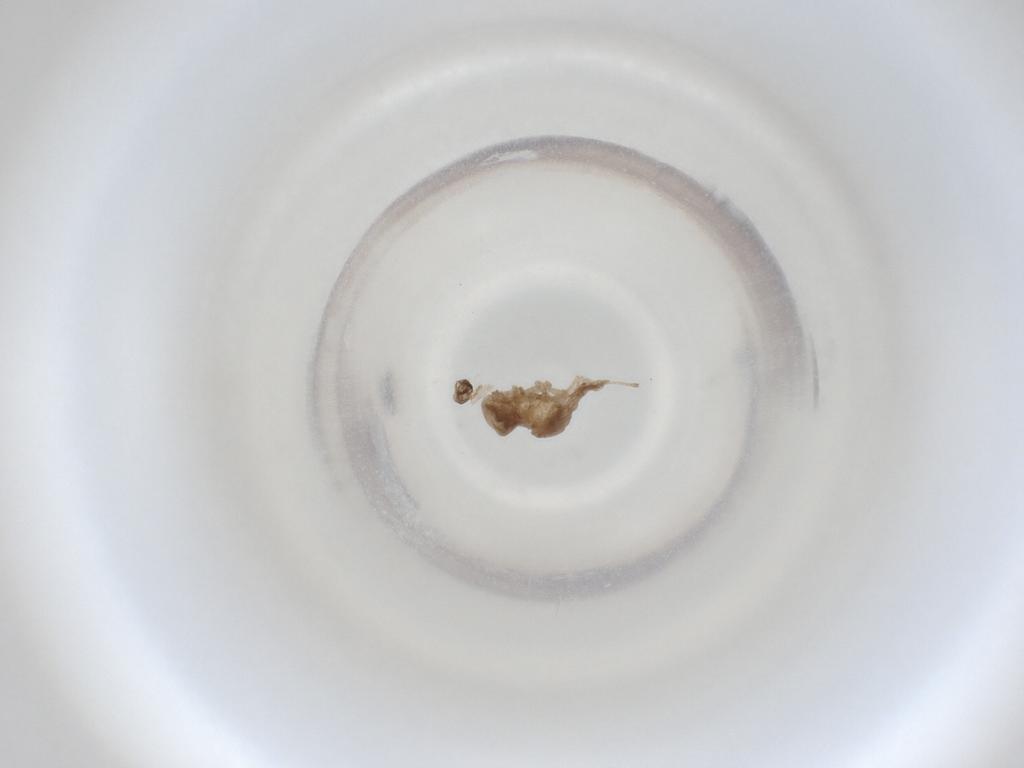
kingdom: Animalia
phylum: Arthropoda
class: Insecta
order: Diptera
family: Cecidomyiidae
